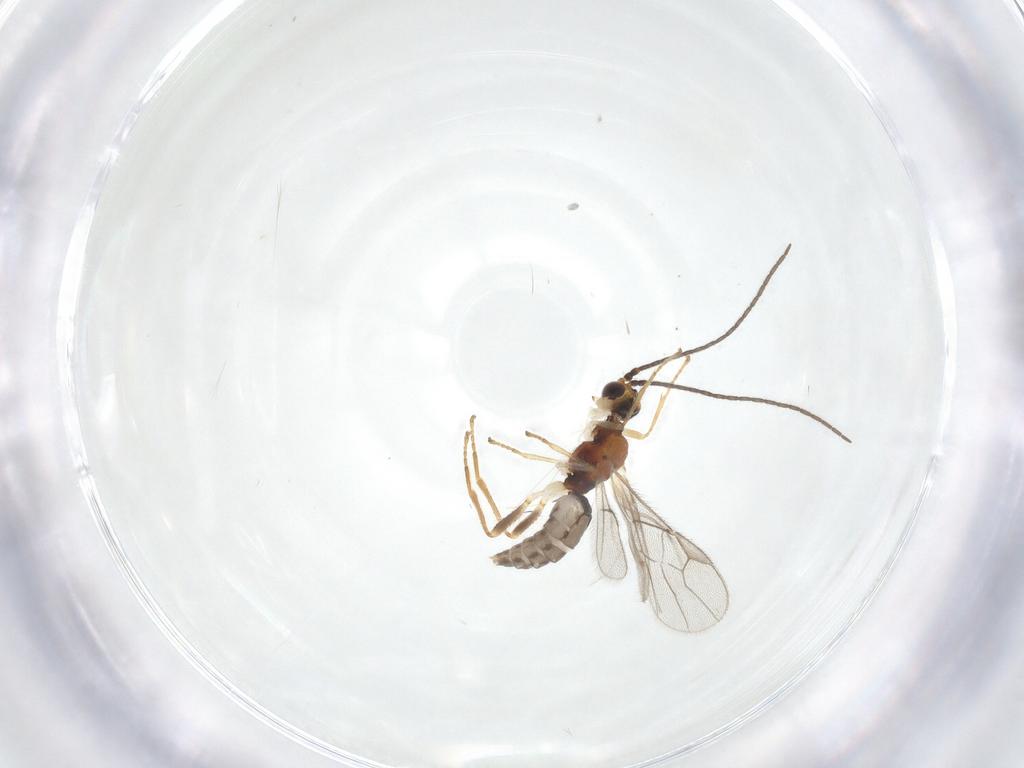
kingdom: Animalia
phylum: Arthropoda
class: Insecta
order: Hymenoptera
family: Braconidae
